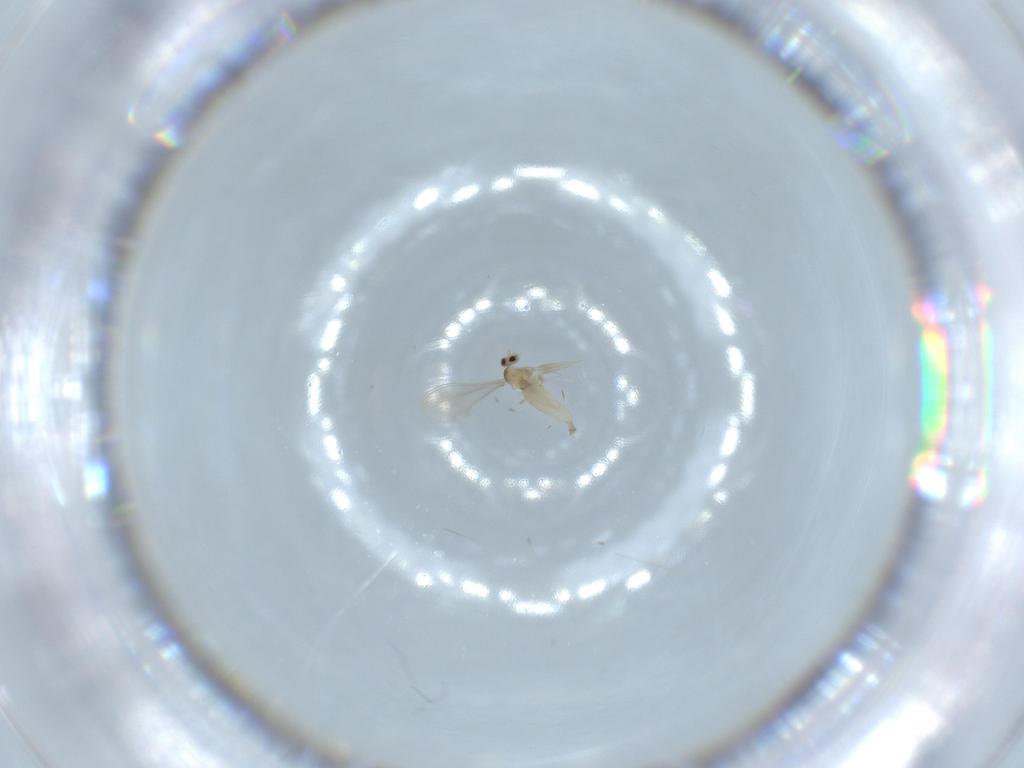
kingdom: Animalia
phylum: Arthropoda
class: Insecta
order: Diptera
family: Cecidomyiidae
